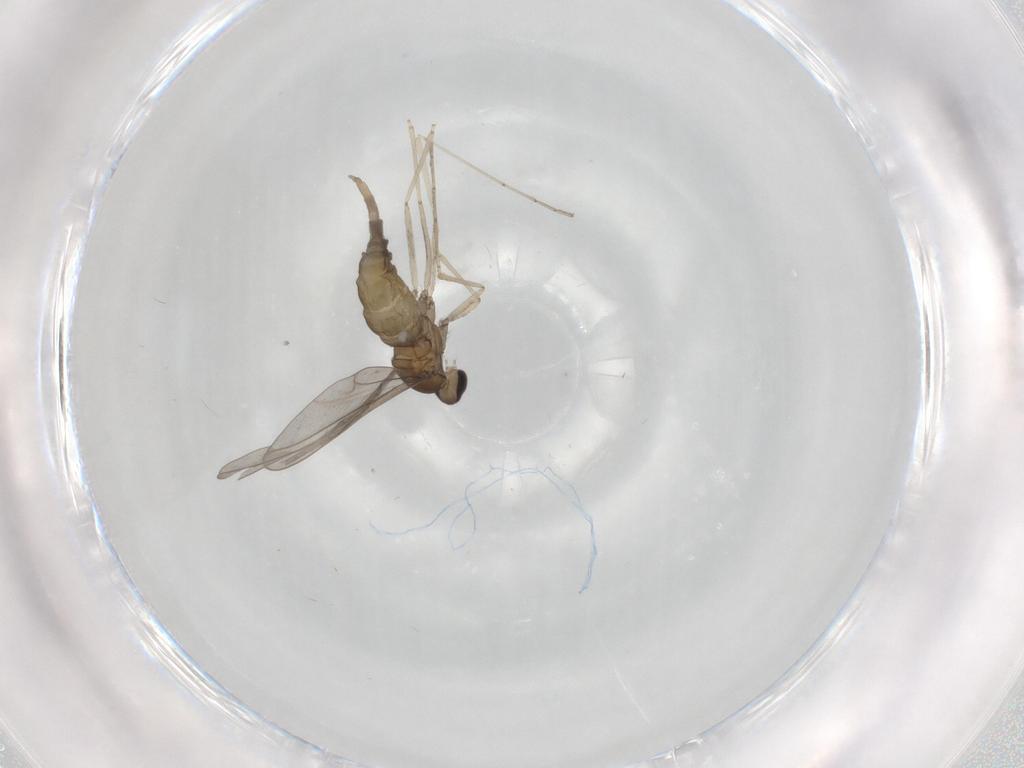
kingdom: Animalia
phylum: Arthropoda
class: Insecta
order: Diptera
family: Cecidomyiidae
